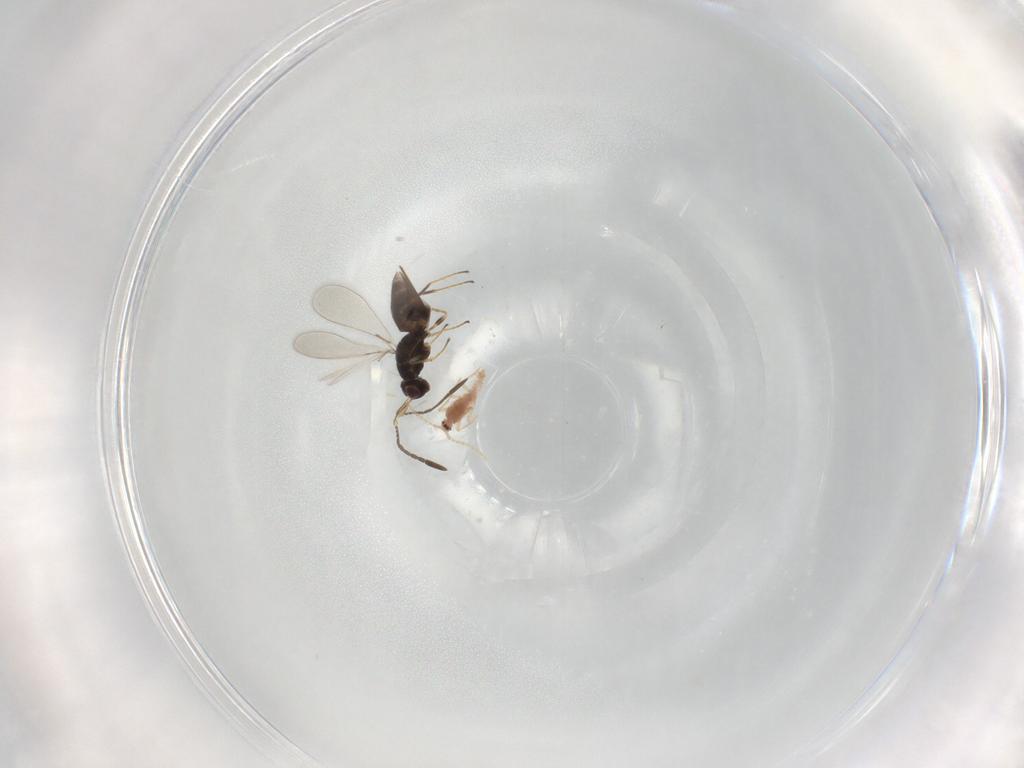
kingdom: Animalia
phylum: Arthropoda
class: Insecta
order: Hymenoptera
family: Mymaridae
